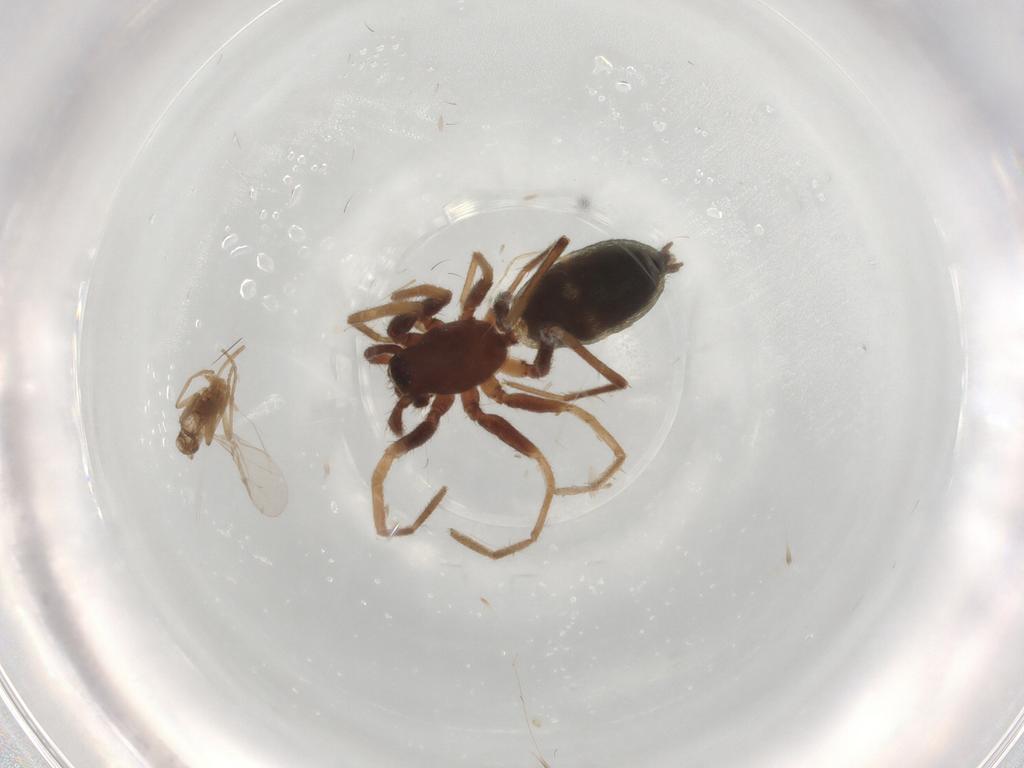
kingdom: Animalia
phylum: Arthropoda
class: Arachnida
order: Araneae
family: Gnaphosidae
